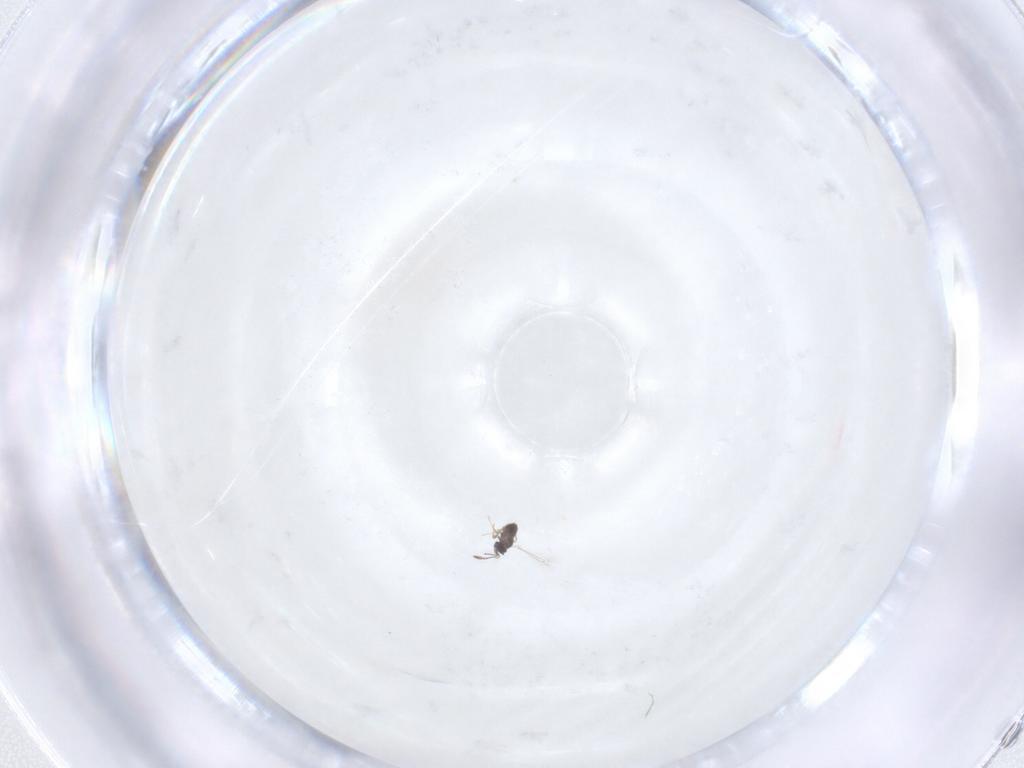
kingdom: Animalia
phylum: Arthropoda
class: Insecta
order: Hymenoptera
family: Mymaridae
